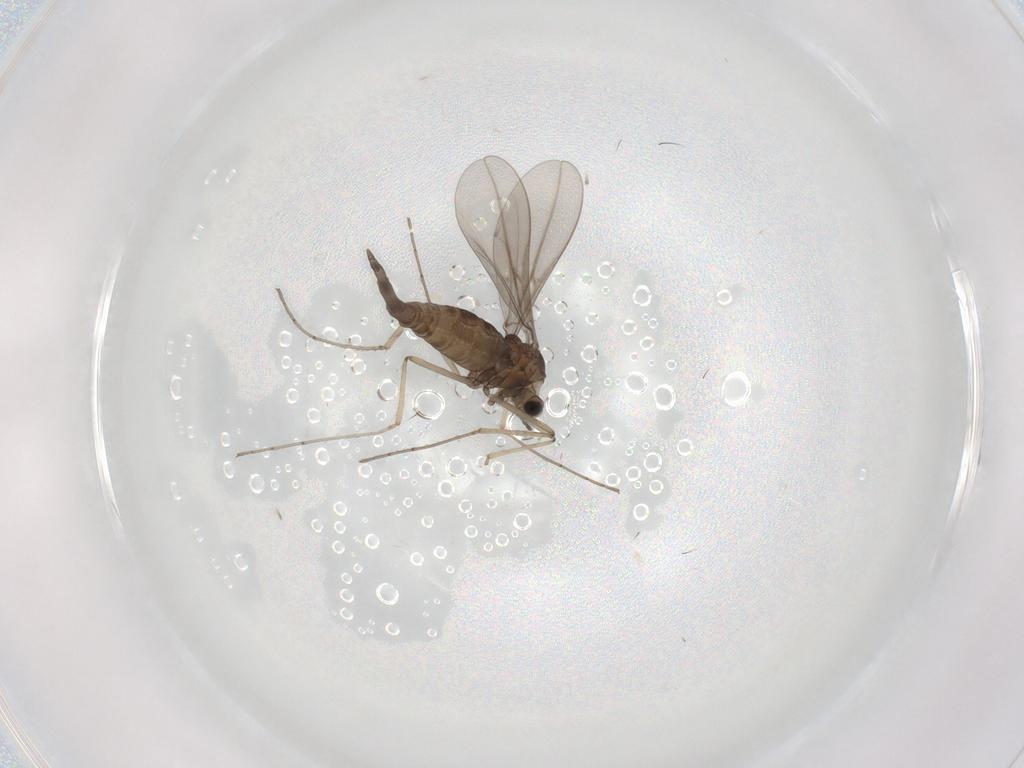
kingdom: Animalia
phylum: Arthropoda
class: Insecta
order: Diptera
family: Cecidomyiidae
